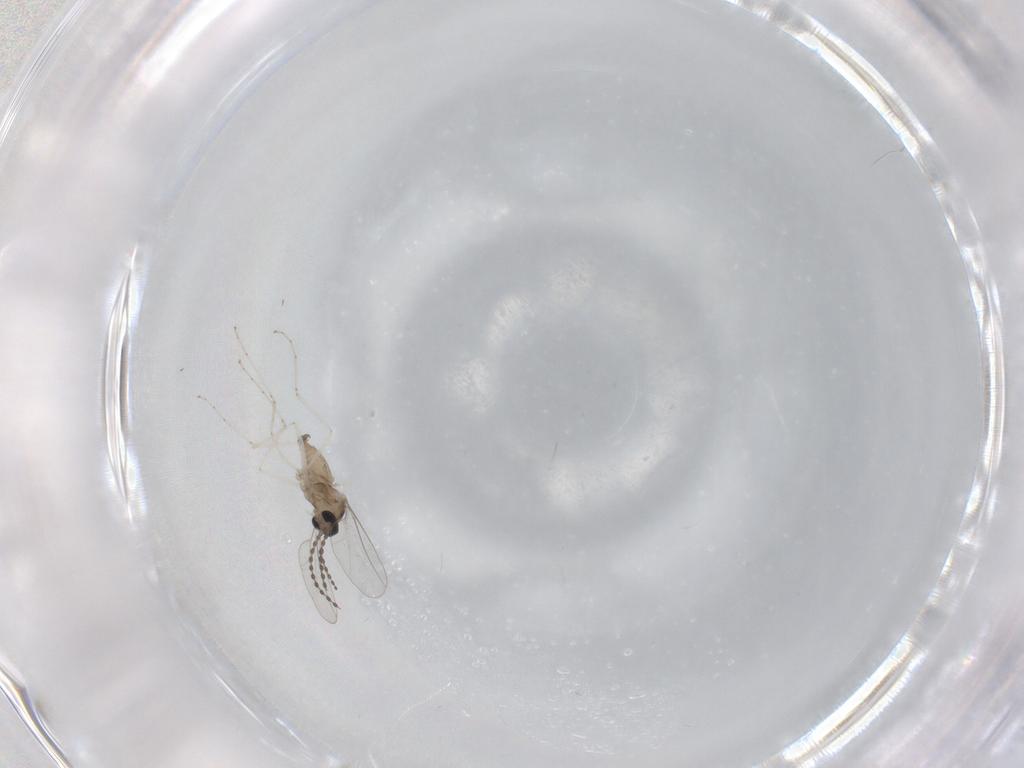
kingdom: Animalia
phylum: Arthropoda
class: Insecta
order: Diptera
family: Cecidomyiidae
